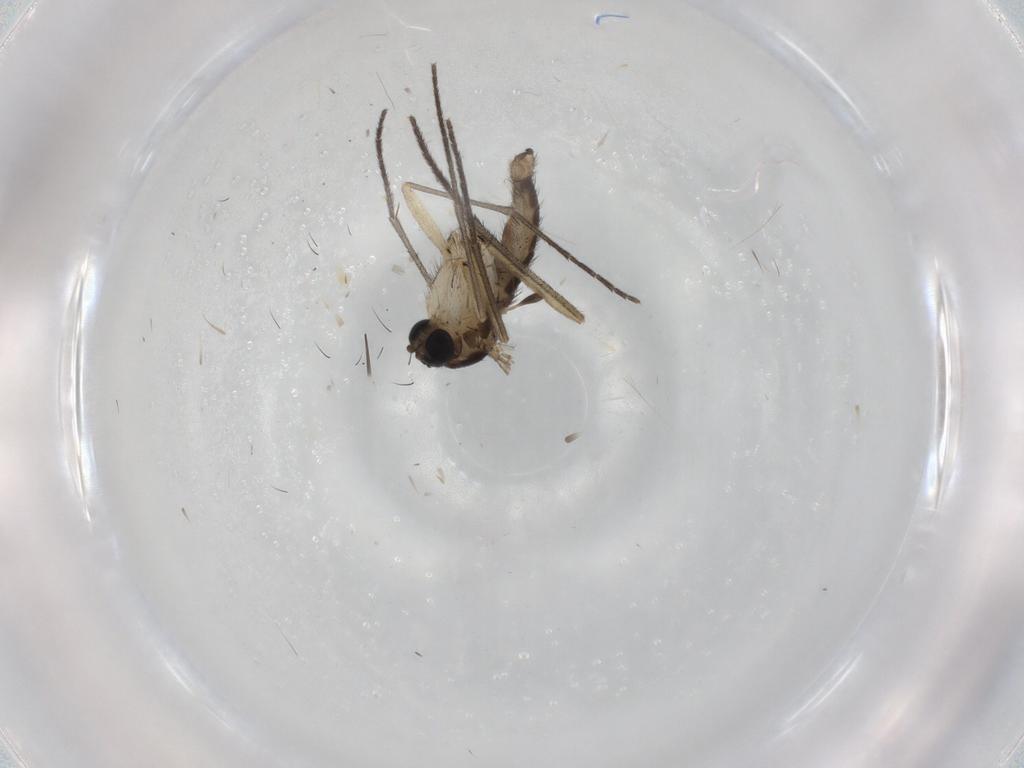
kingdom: Animalia
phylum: Arthropoda
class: Insecta
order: Diptera
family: Sciaridae
